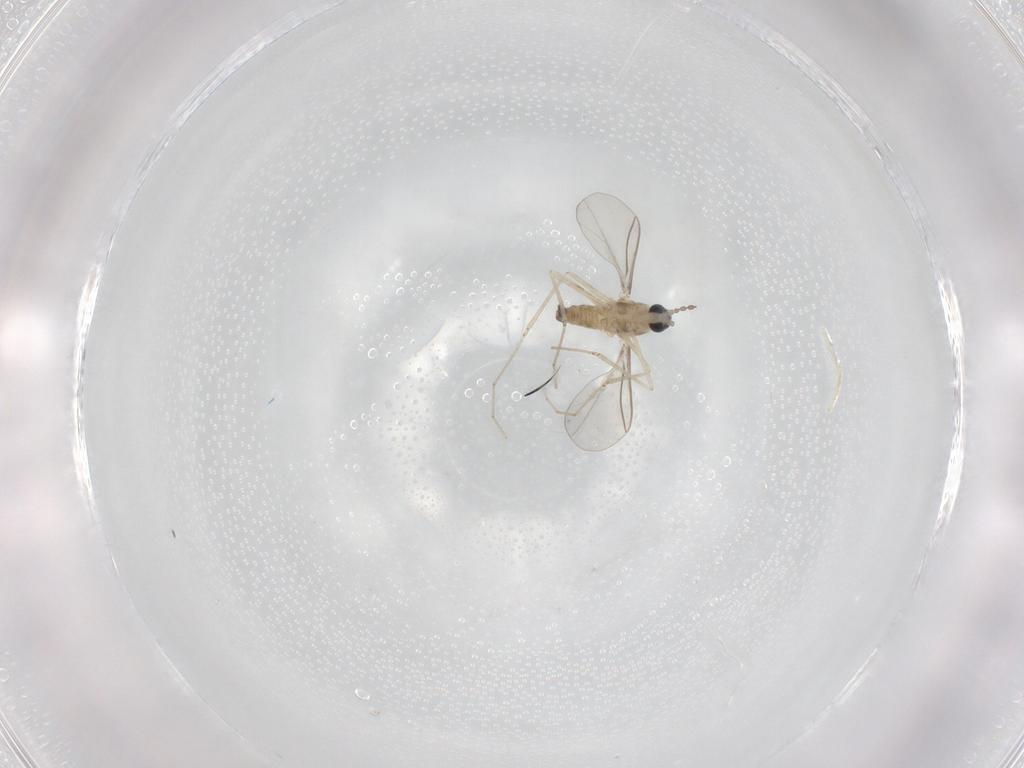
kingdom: Animalia
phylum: Arthropoda
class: Insecta
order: Diptera
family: Cecidomyiidae
